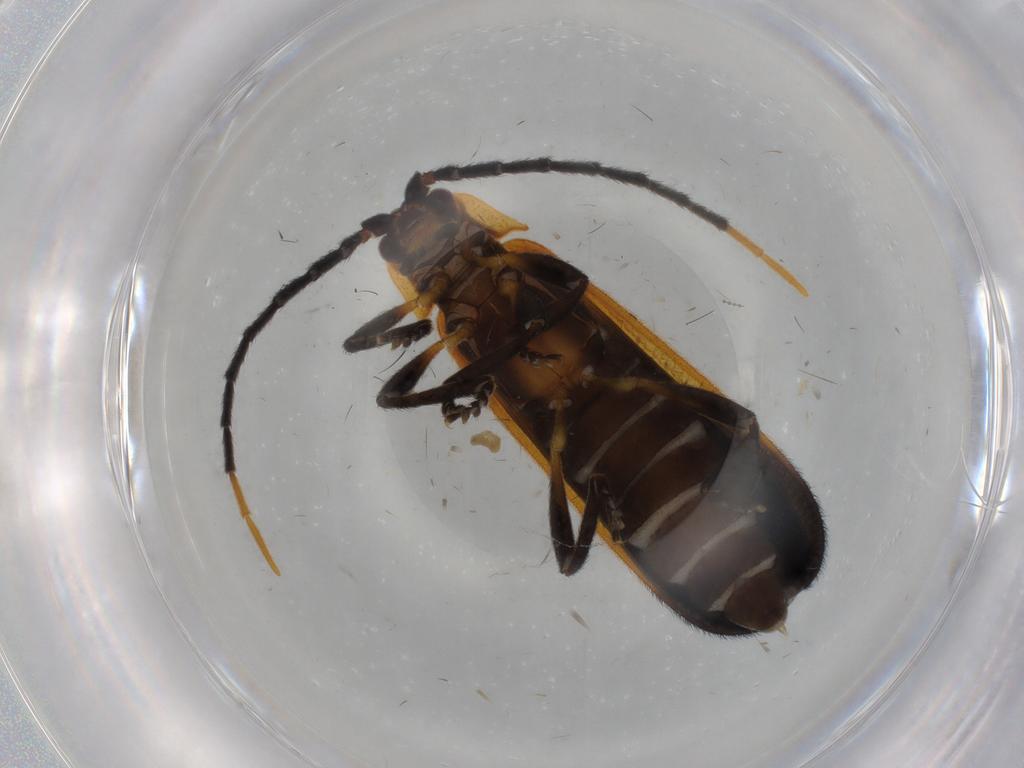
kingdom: Animalia
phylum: Arthropoda
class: Insecta
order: Coleoptera
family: Lycidae
